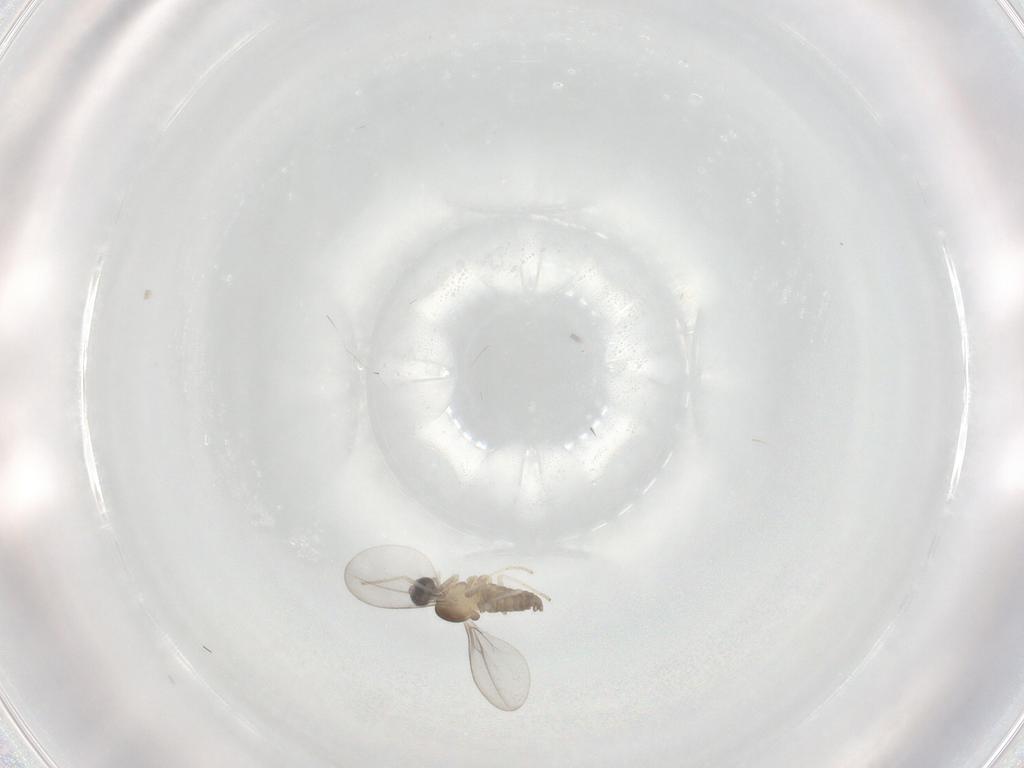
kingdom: Animalia
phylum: Arthropoda
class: Insecta
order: Diptera
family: Cecidomyiidae
